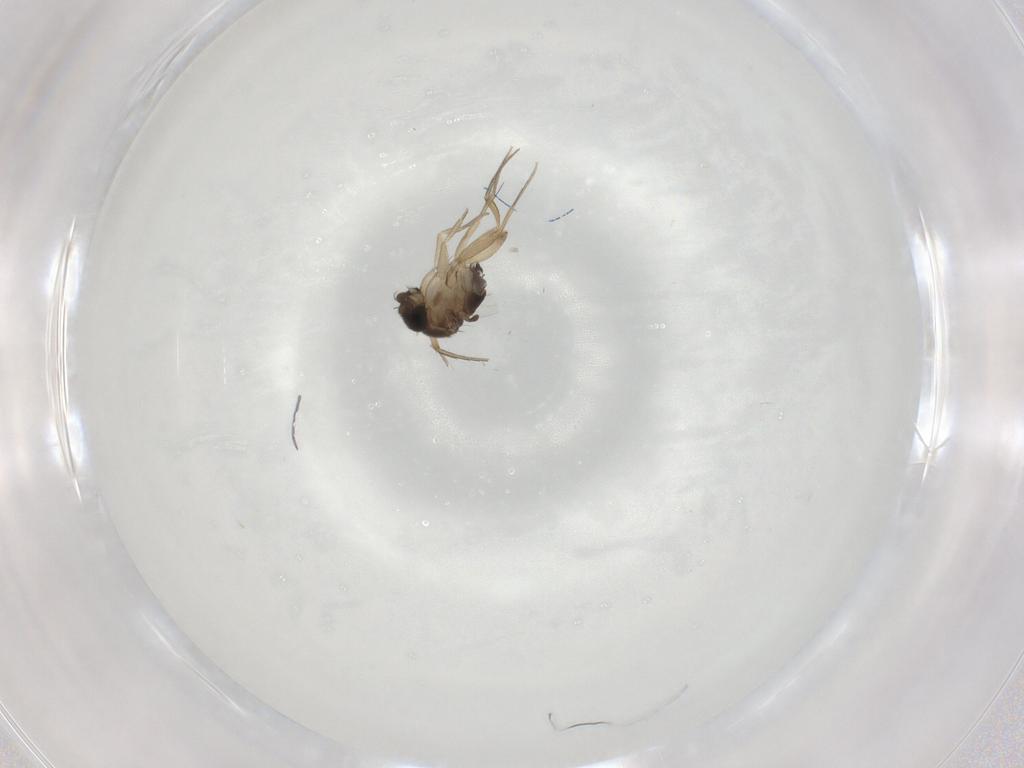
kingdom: Animalia
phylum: Arthropoda
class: Insecta
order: Diptera
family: Phoridae
